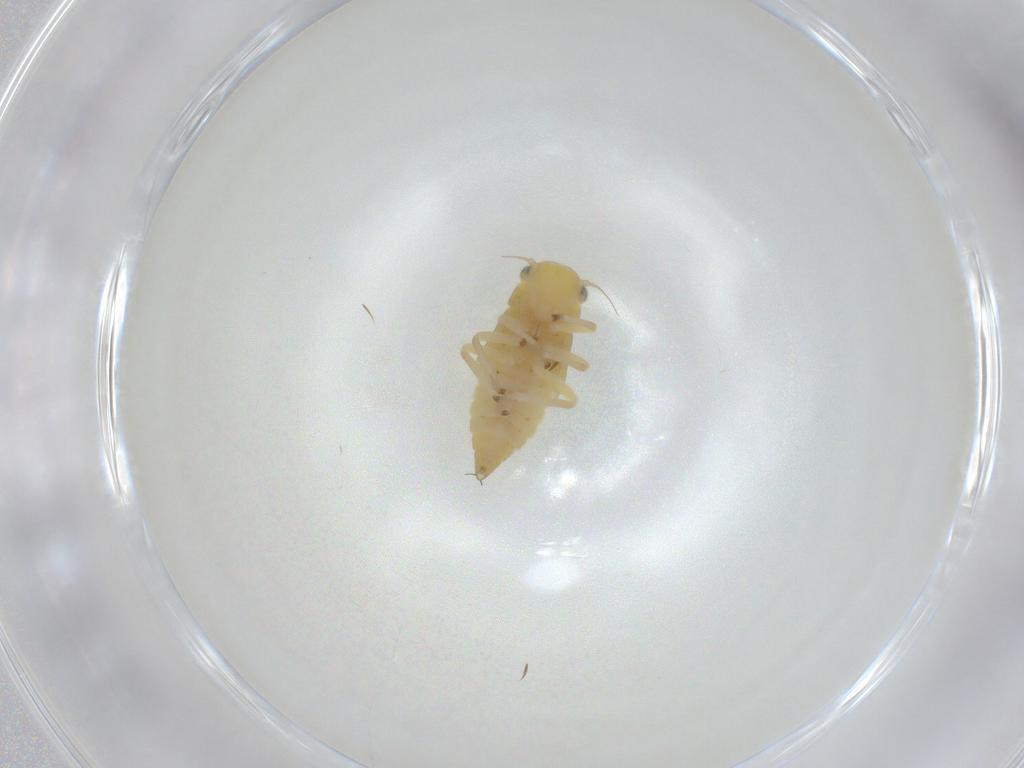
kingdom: Animalia
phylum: Arthropoda
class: Insecta
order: Hemiptera
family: Cicadellidae
